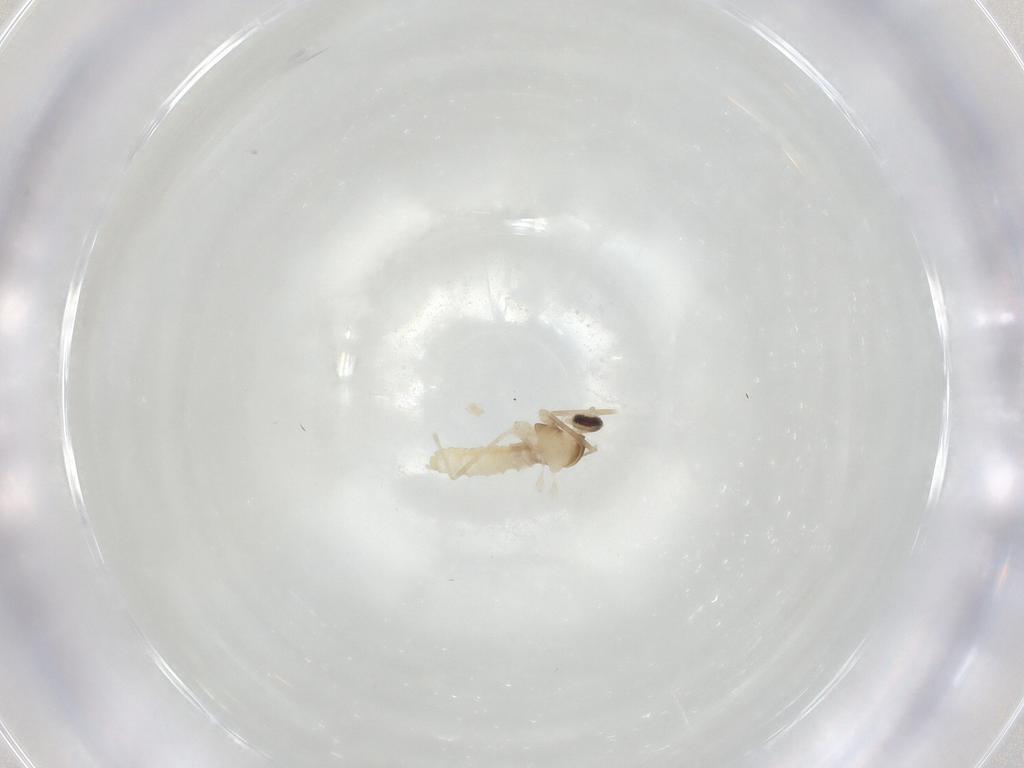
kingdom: Animalia
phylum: Arthropoda
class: Insecta
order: Diptera
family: Cecidomyiidae
